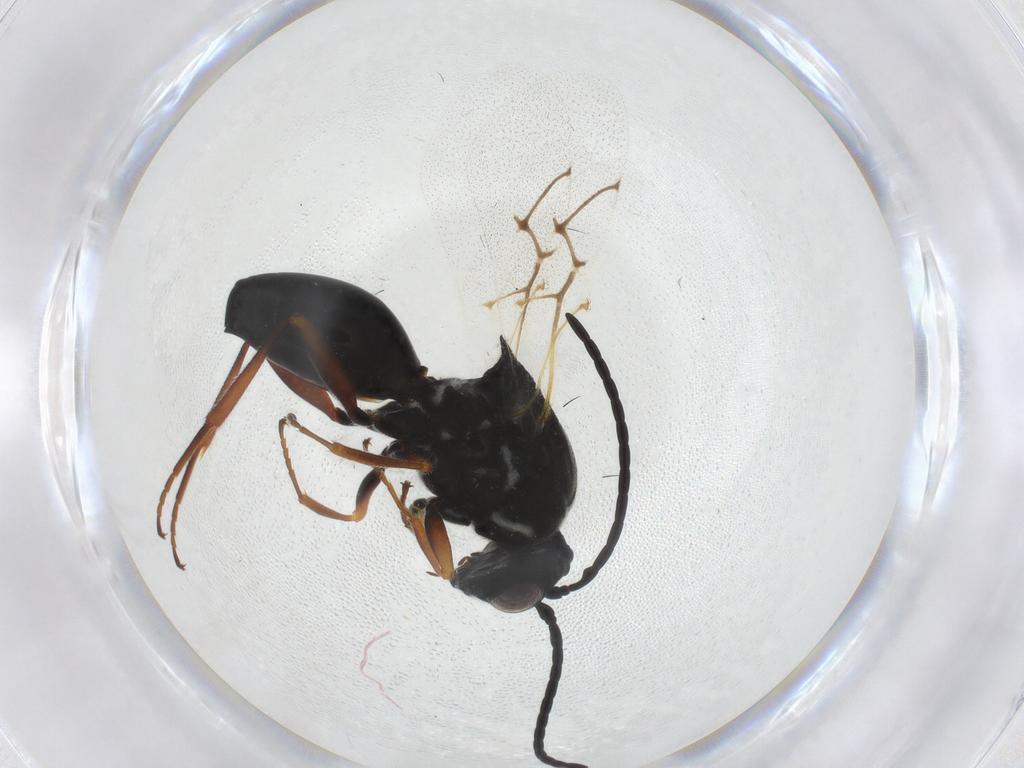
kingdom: Animalia
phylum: Arthropoda
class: Insecta
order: Hymenoptera
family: Figitidae
